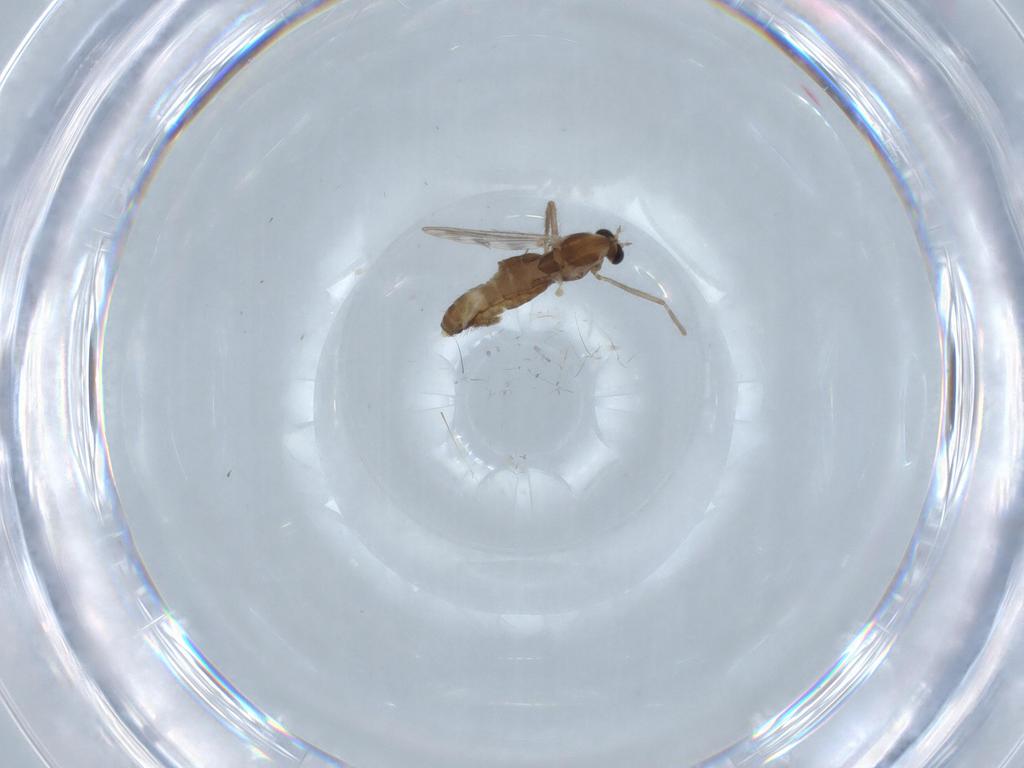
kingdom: Animalia
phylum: Arthropoda
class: Insecta
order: Diptera
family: Chironomidae
